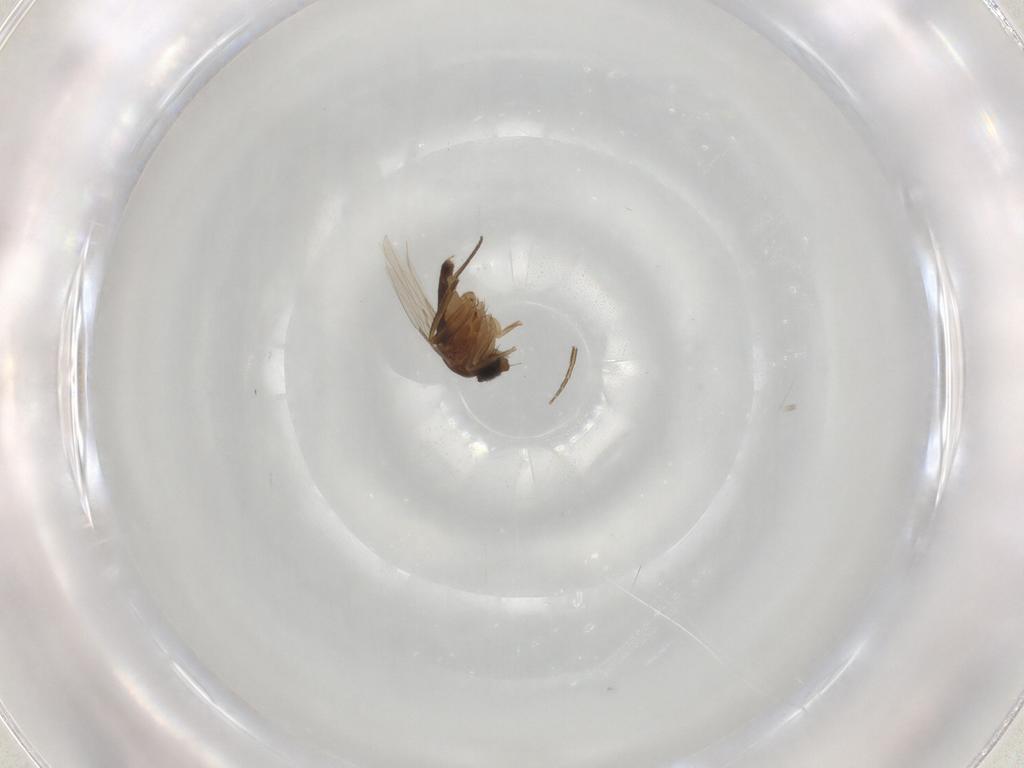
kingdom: Animalia
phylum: Arthropoda
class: Insecta
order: Diptera
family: Phoridae
